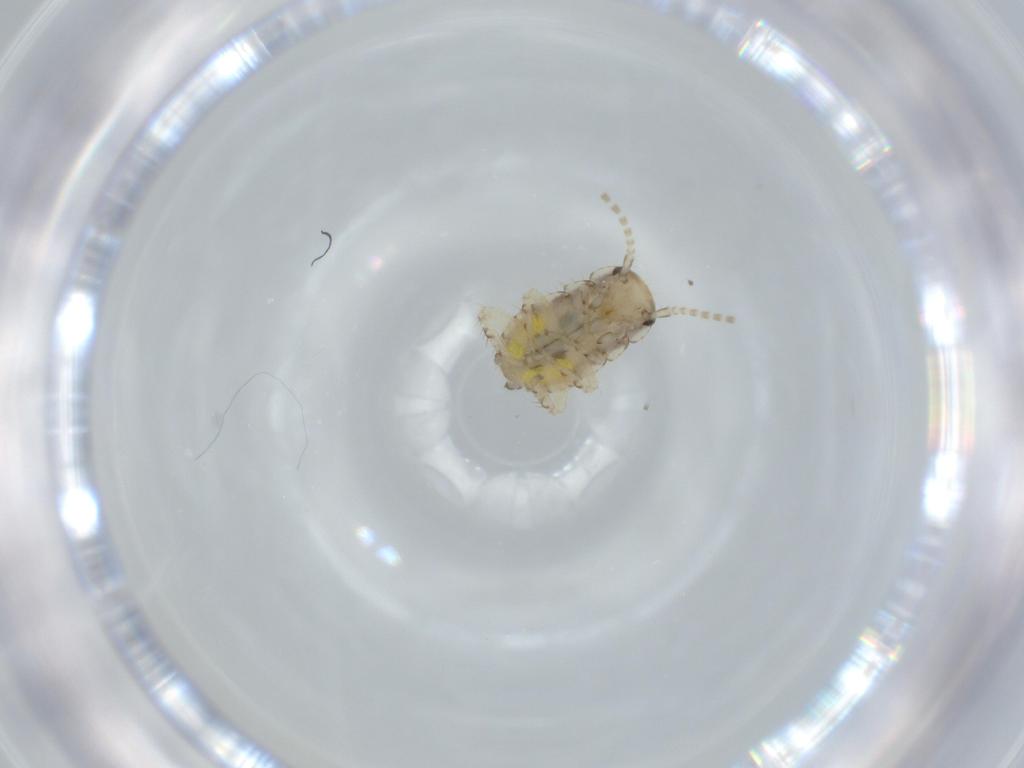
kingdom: Animalia
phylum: Arthropoda
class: Insecta
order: Blattodea
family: Ectobiidae
